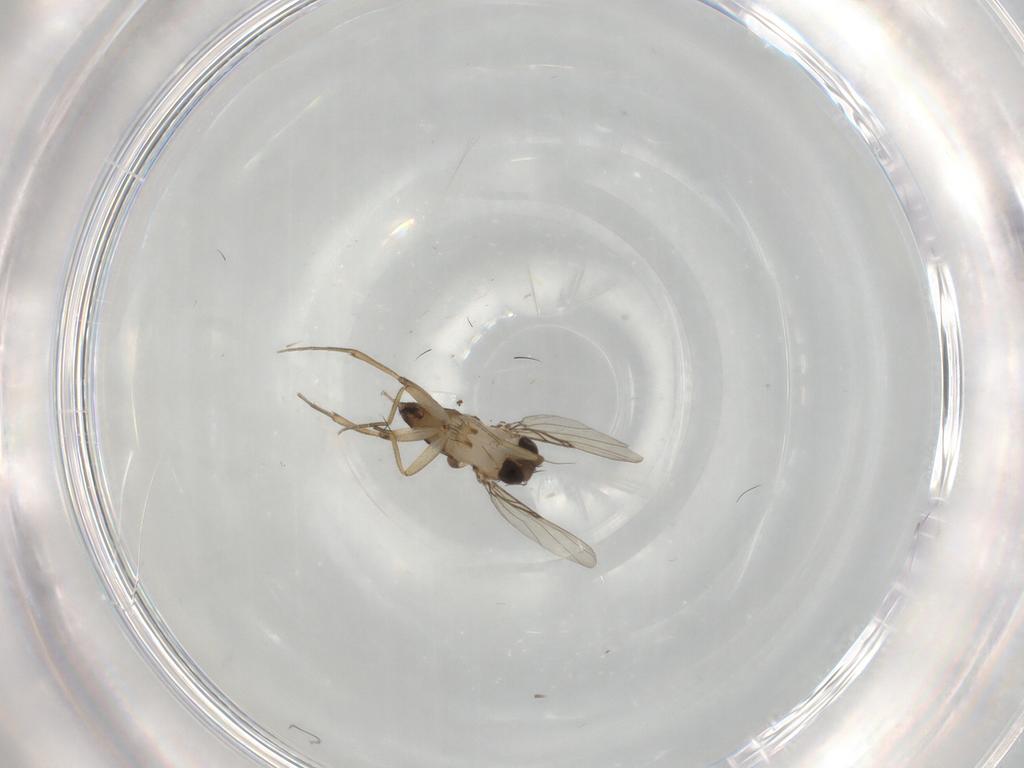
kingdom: Animalia
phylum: Arthropoda
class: Insecta
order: Diptera
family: Phoridae
